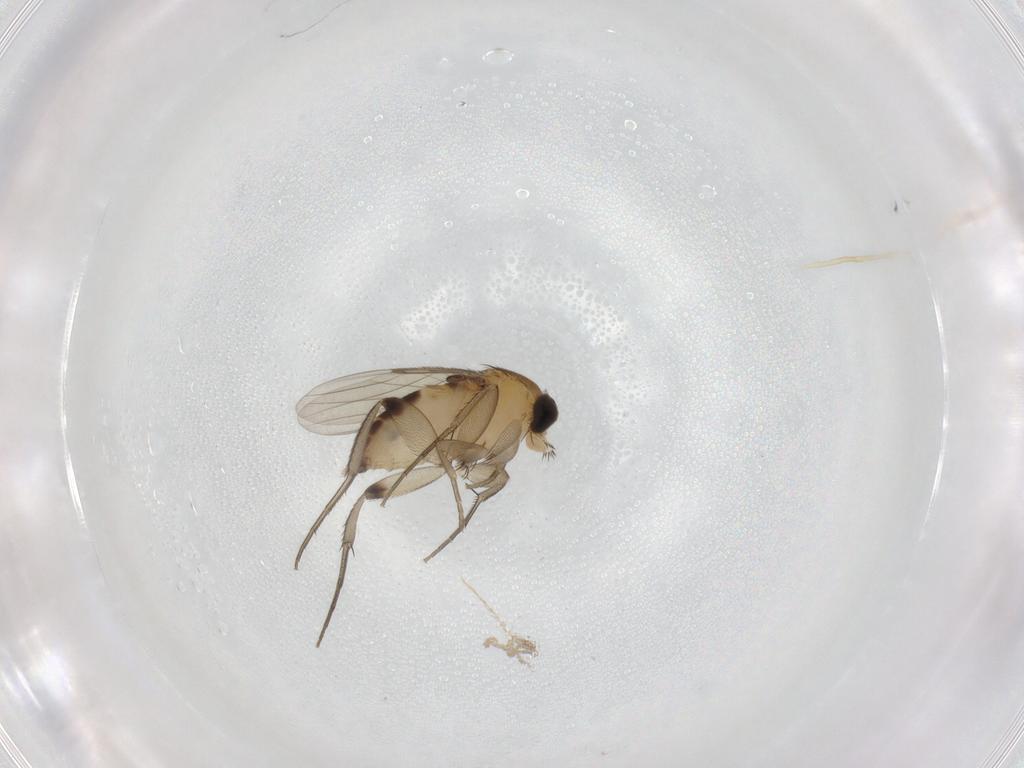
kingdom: Animalia
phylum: Arthropoda
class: Insecta
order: Diptera
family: Phoridae
